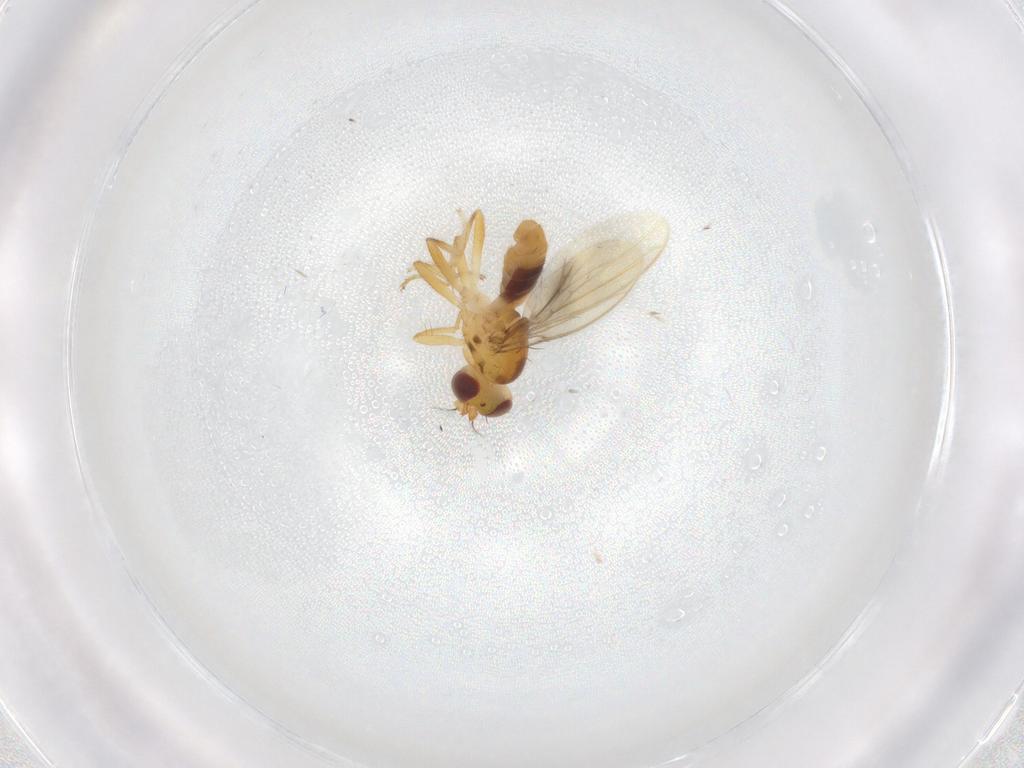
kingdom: Animalia
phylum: Arthropoda
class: Insecta
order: Diptera
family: Periscelididae
